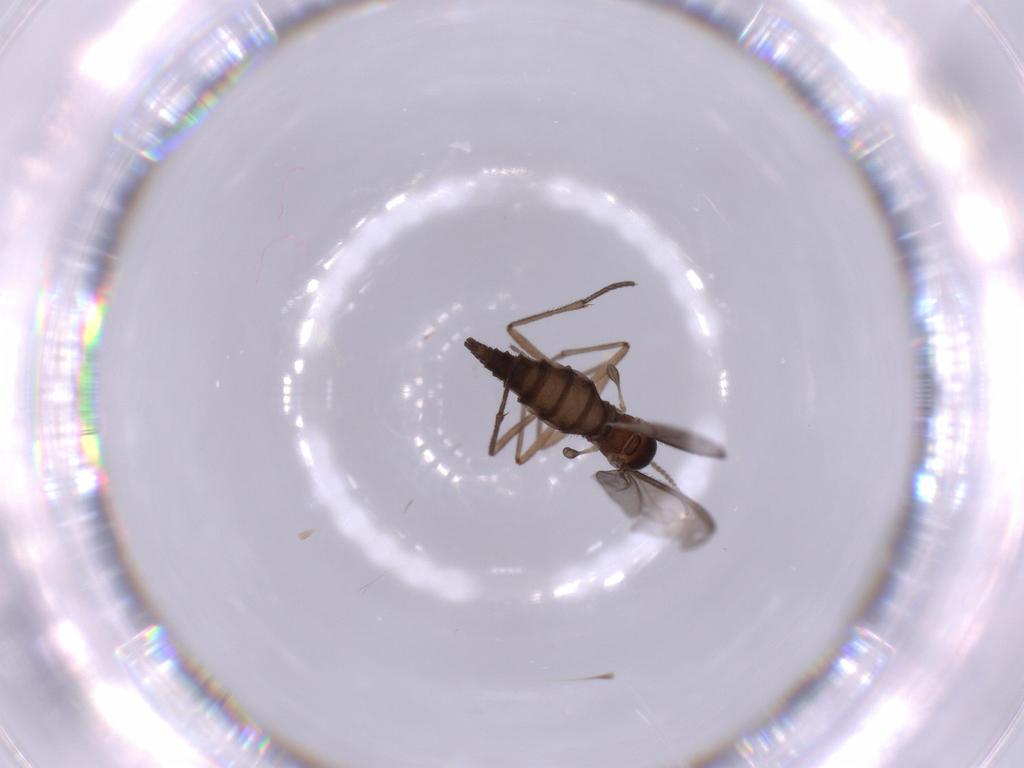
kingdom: Animalia
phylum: Arthropoda
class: Insecta
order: Diptera
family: Sciaridae
